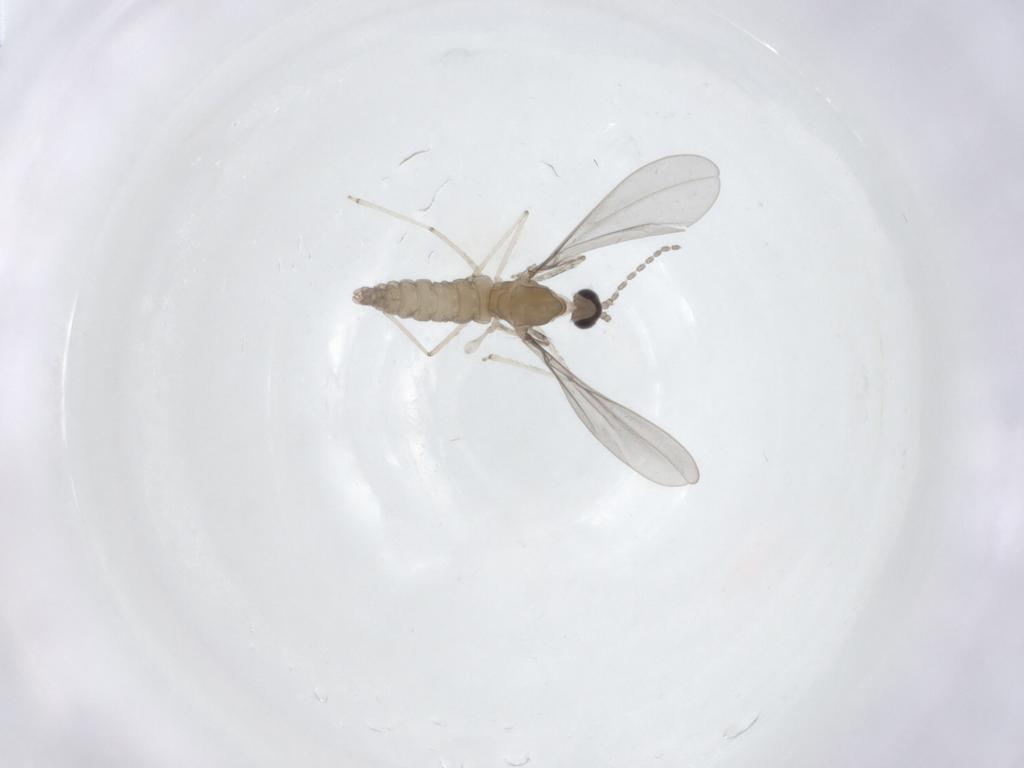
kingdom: Animalia
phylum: Arthropoda
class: Insecta
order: Diptera
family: Cecidomyiidae
